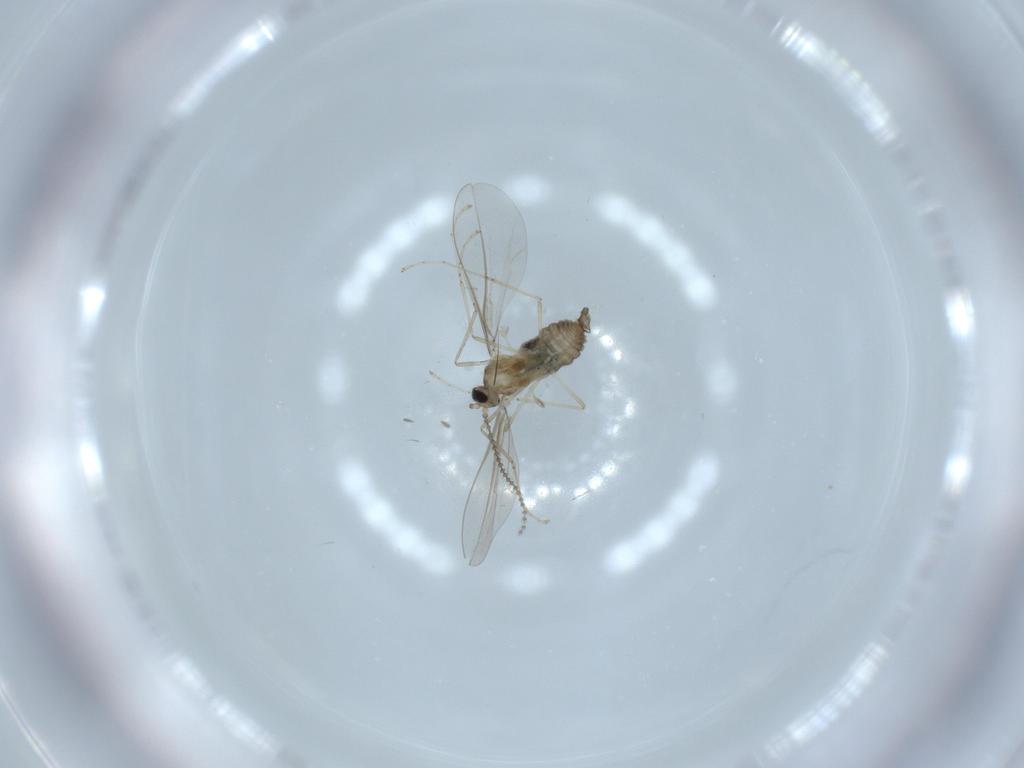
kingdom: Animalia
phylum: Arthropoda
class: Insecta
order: Diptera
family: Cecidomyiidae
